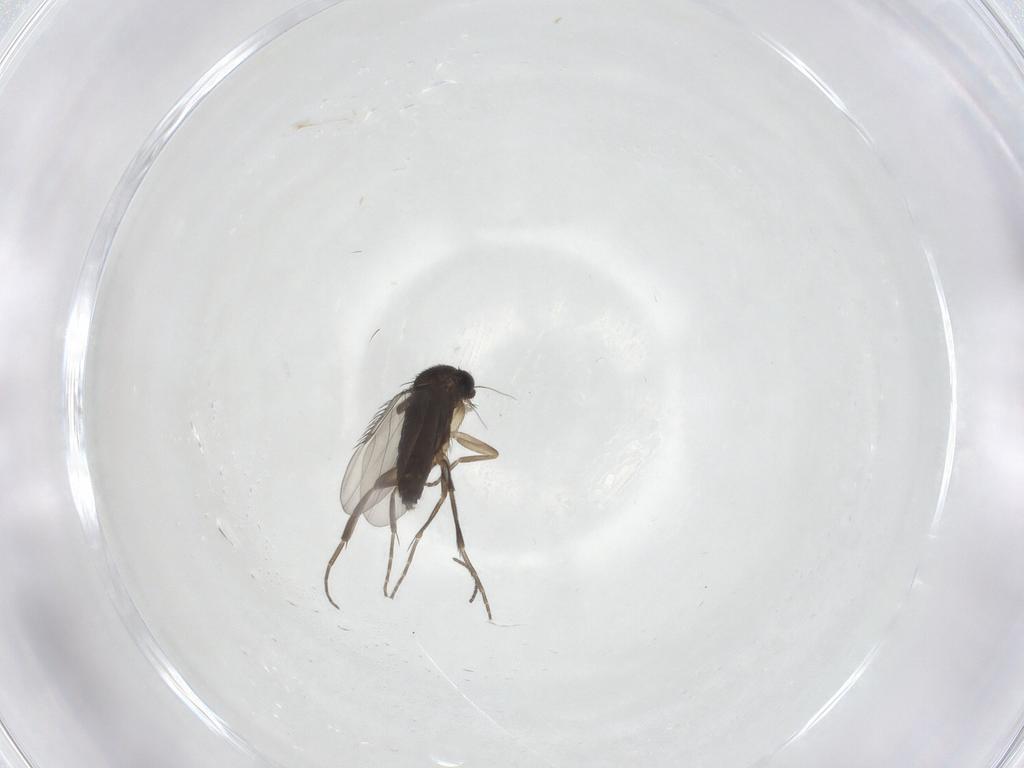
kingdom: Animalia
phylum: Arthropoda
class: Insecta
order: Diptera
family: Phoridae
